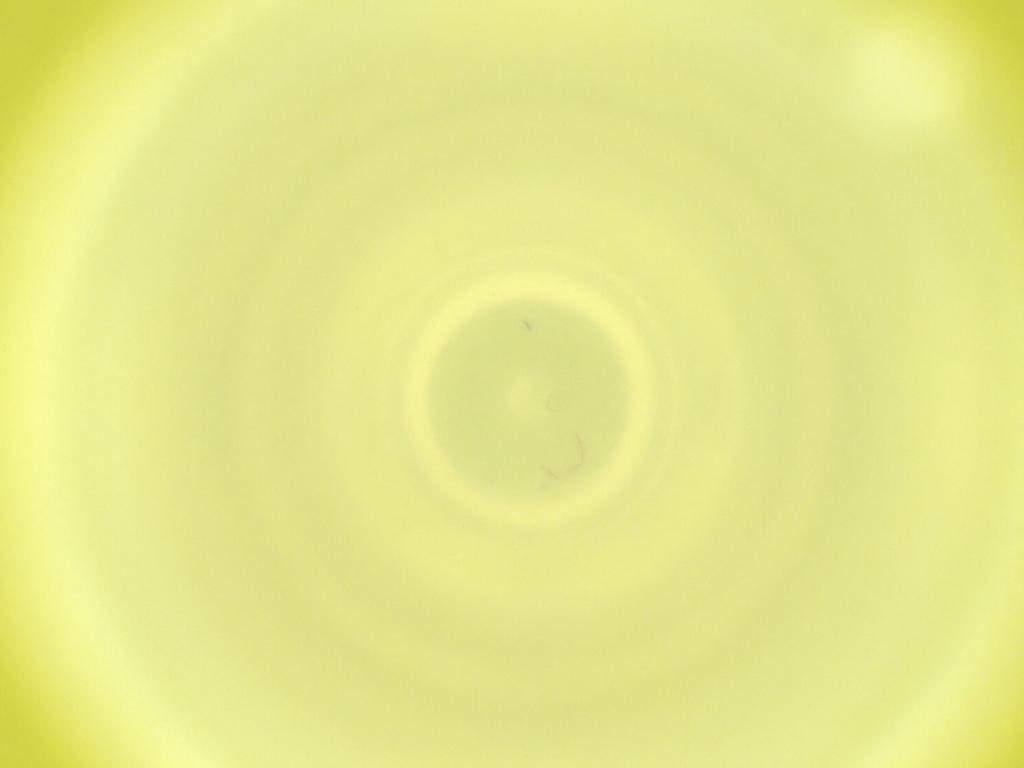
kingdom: Animalia
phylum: Arthropoda
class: Insecta
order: Diptera
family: Cecidomyiidae
